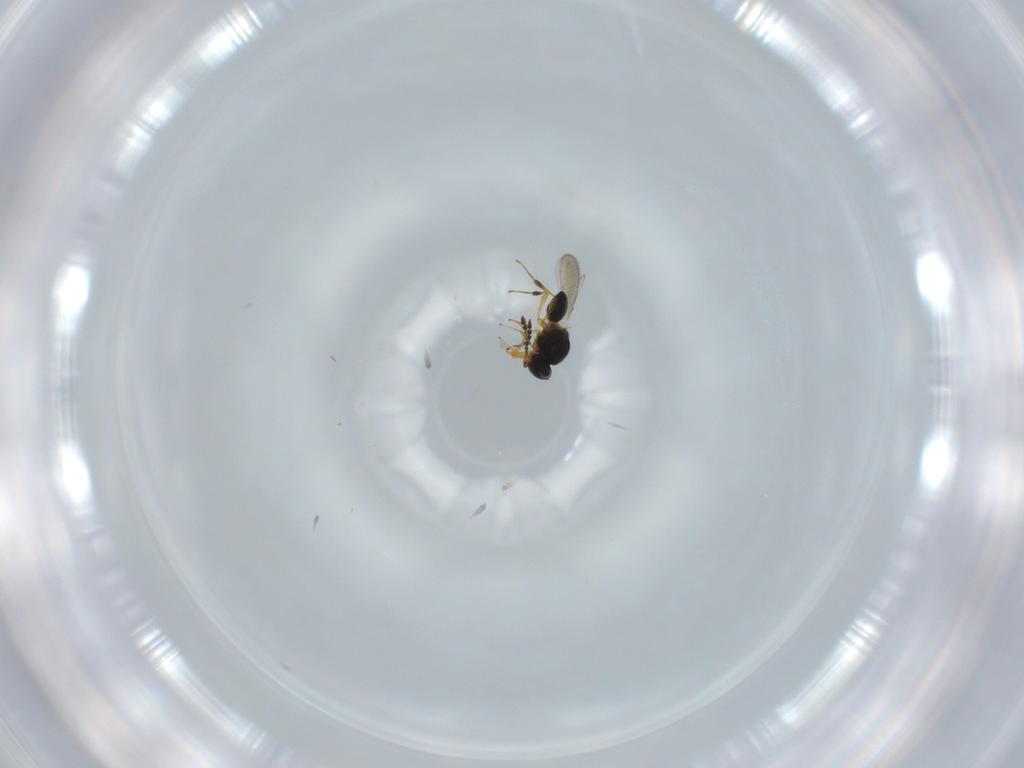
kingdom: Animalia
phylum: Arthropoda
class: Insecta
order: Hymenoptera
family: Platygastridae
